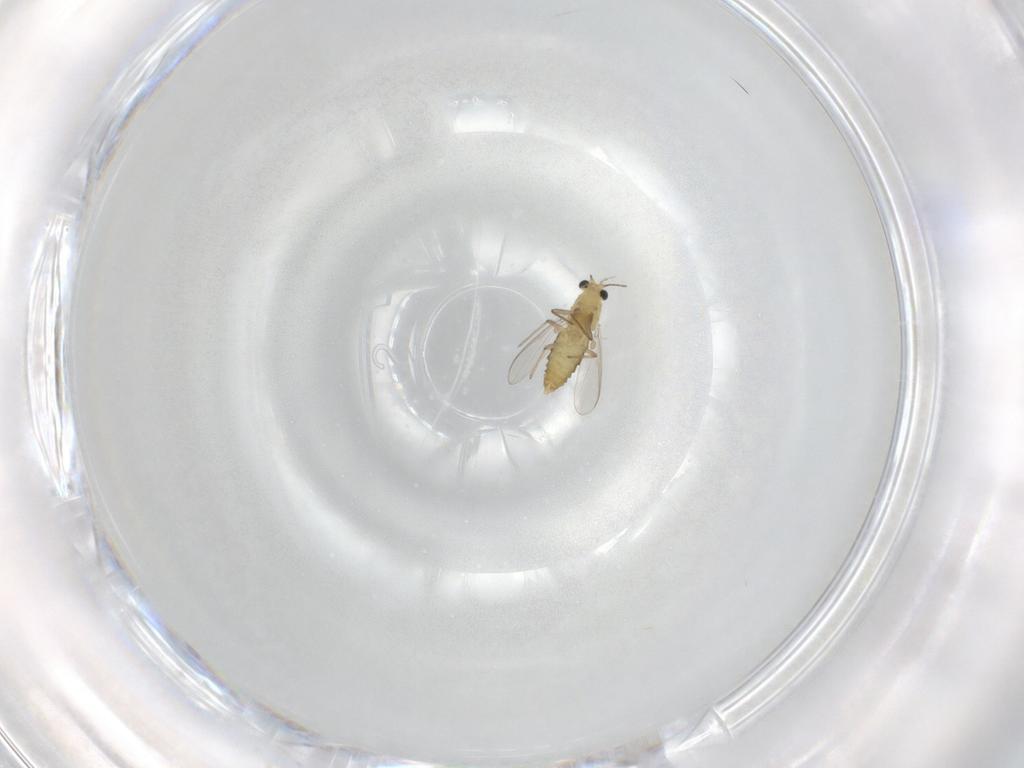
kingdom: Animalia
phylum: Arthropoda
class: Insecta
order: Diptera
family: Chironomidae
